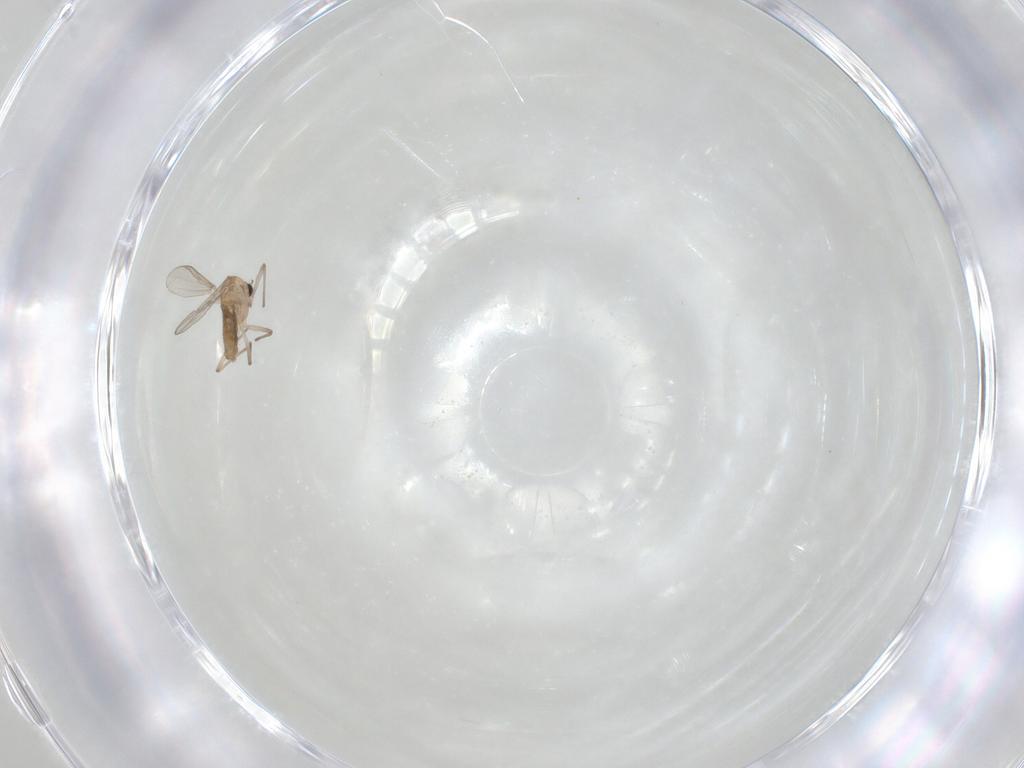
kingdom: Animalia
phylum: Arthropoda
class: Insecta
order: Diptera
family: Chironomidae
